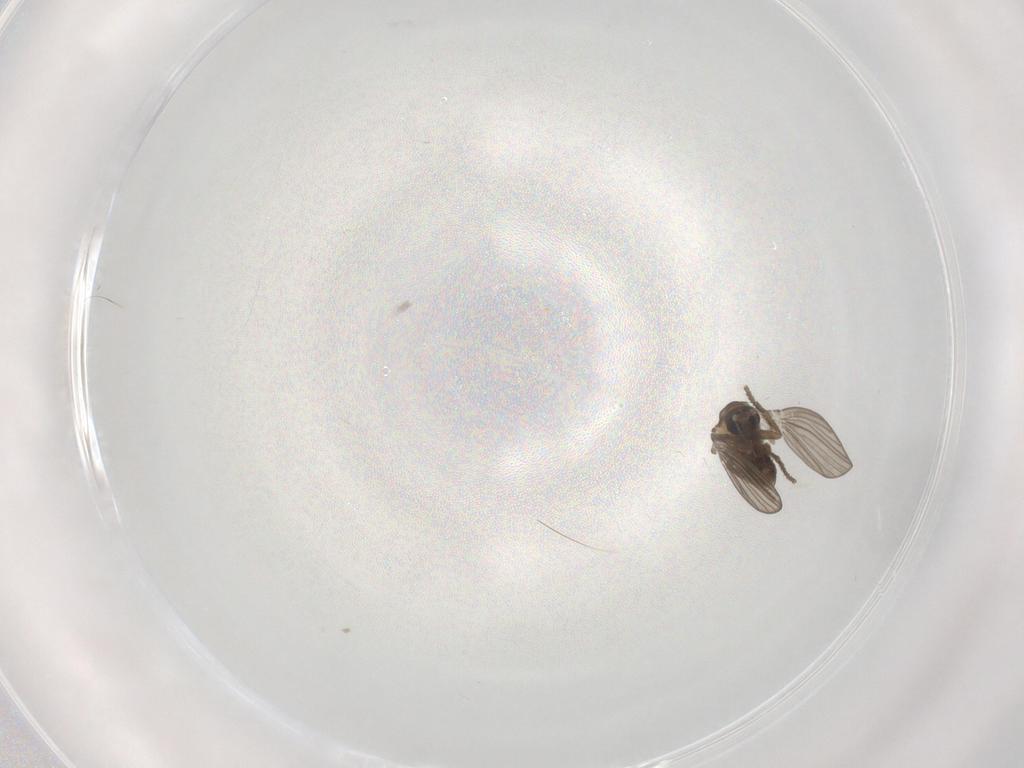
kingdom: Animalia
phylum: Arthropoda
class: Insecta
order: Diptera
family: Psychodidae
